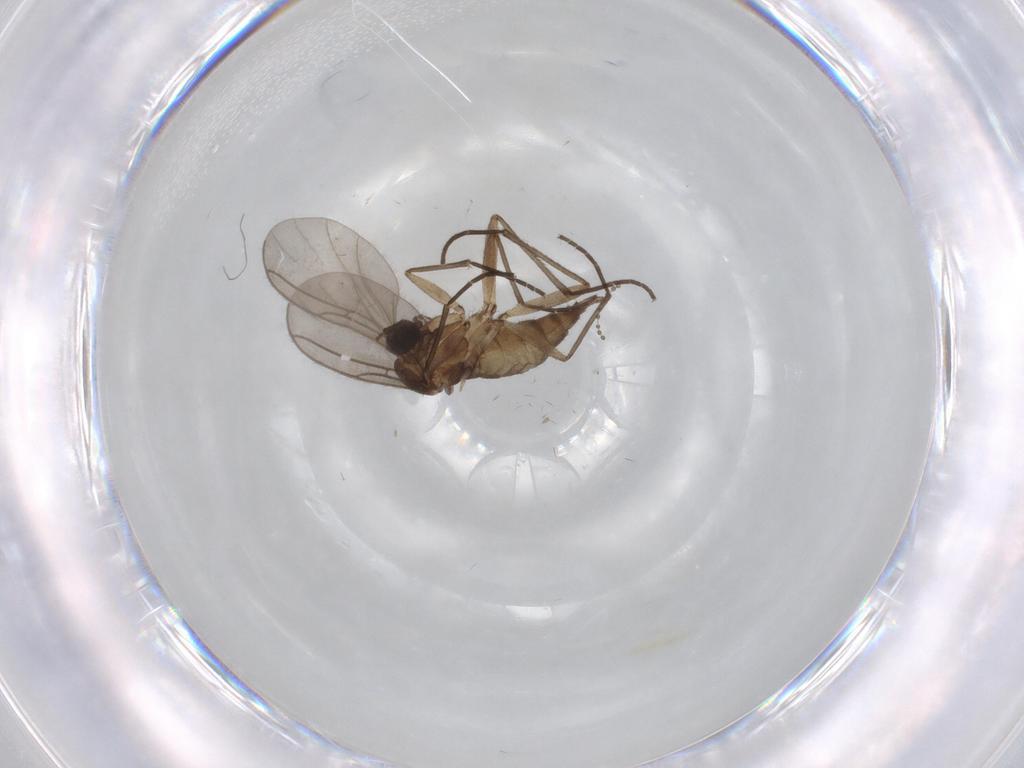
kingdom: Animalia
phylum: Arthropoda
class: Insecta
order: Diptera
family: Sciaridae
